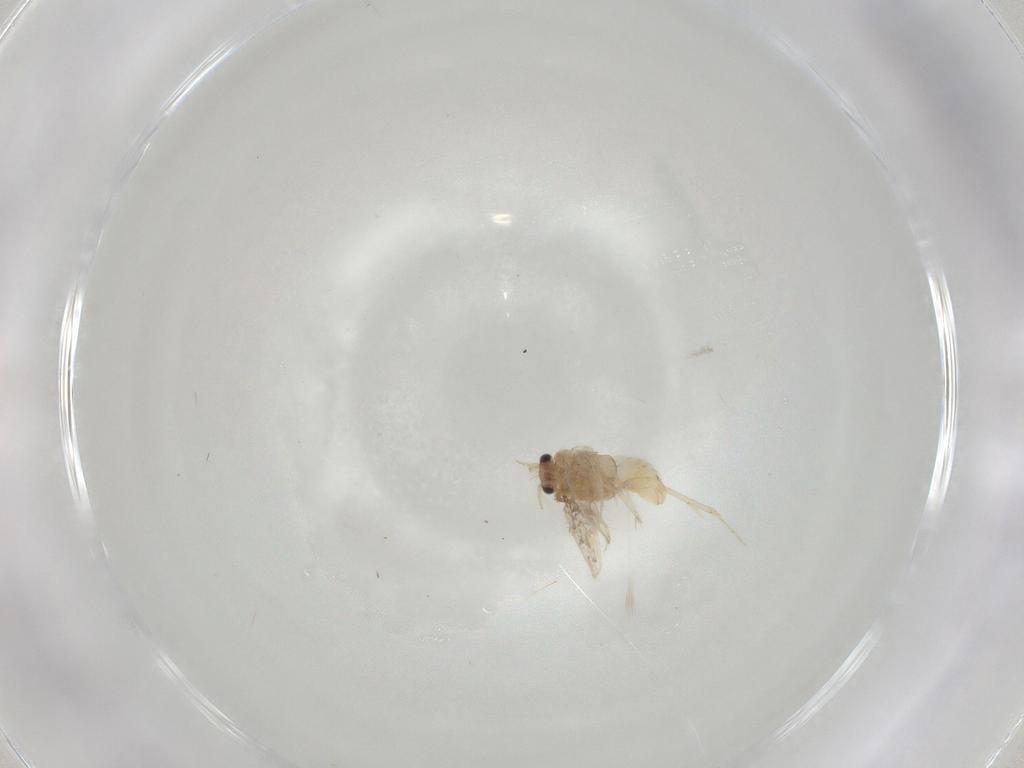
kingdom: Animalia
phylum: Arthropoda
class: Insecta
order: Lepidoptera
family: Nepticulidae
